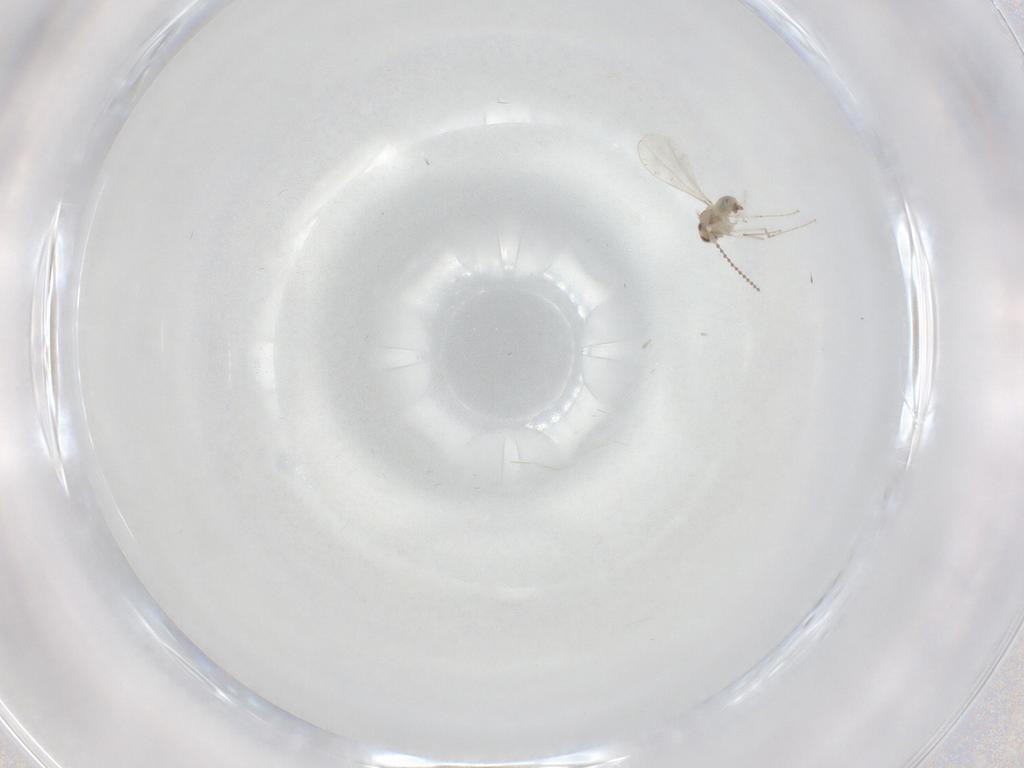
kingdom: Animalia
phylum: Arthropoda
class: Insecta
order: Diptera
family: Cecidomyiidae
